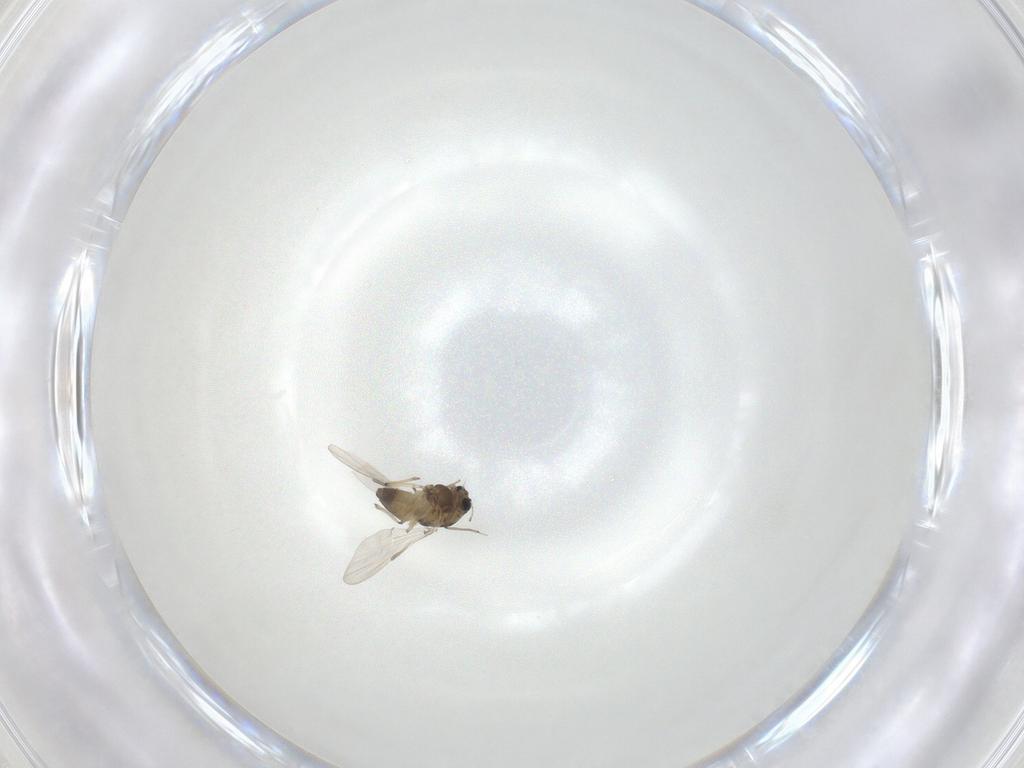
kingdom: Animalia
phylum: Arthropoda
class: Insecta
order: Diptera
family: Chironomidae
